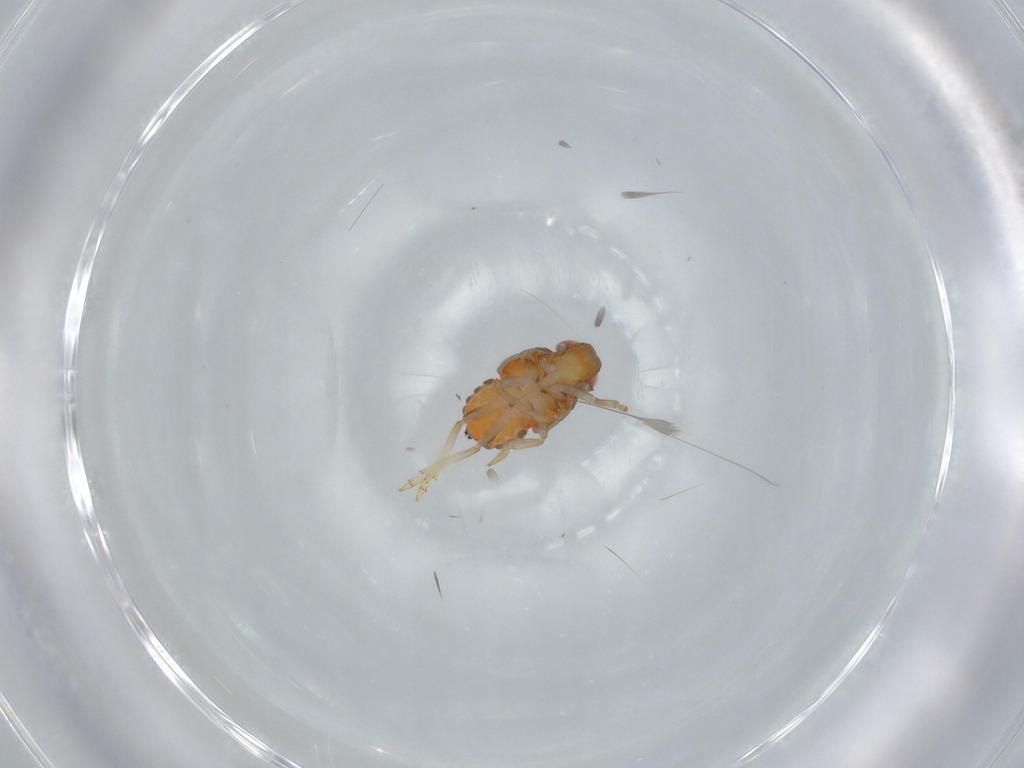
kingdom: Animalia
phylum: Arthropoda
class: Insecta
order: Hemiptera
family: Issidae
